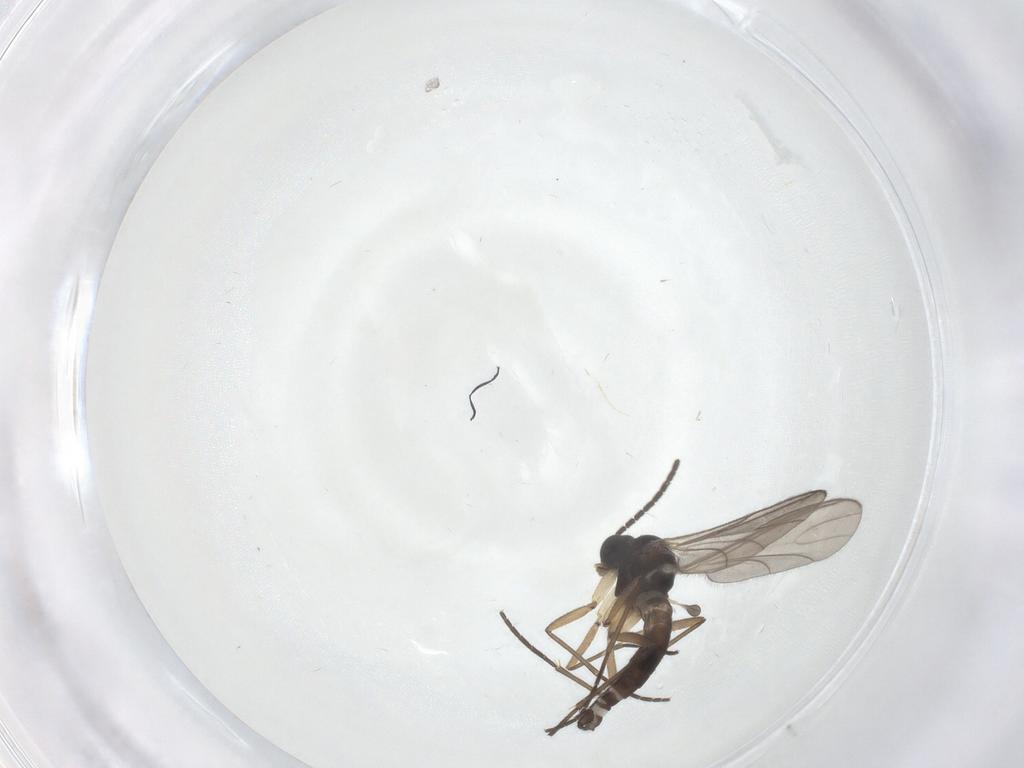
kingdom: Animalia
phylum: Arthropoda
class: Insecta
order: Diptera
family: Sciaridae
